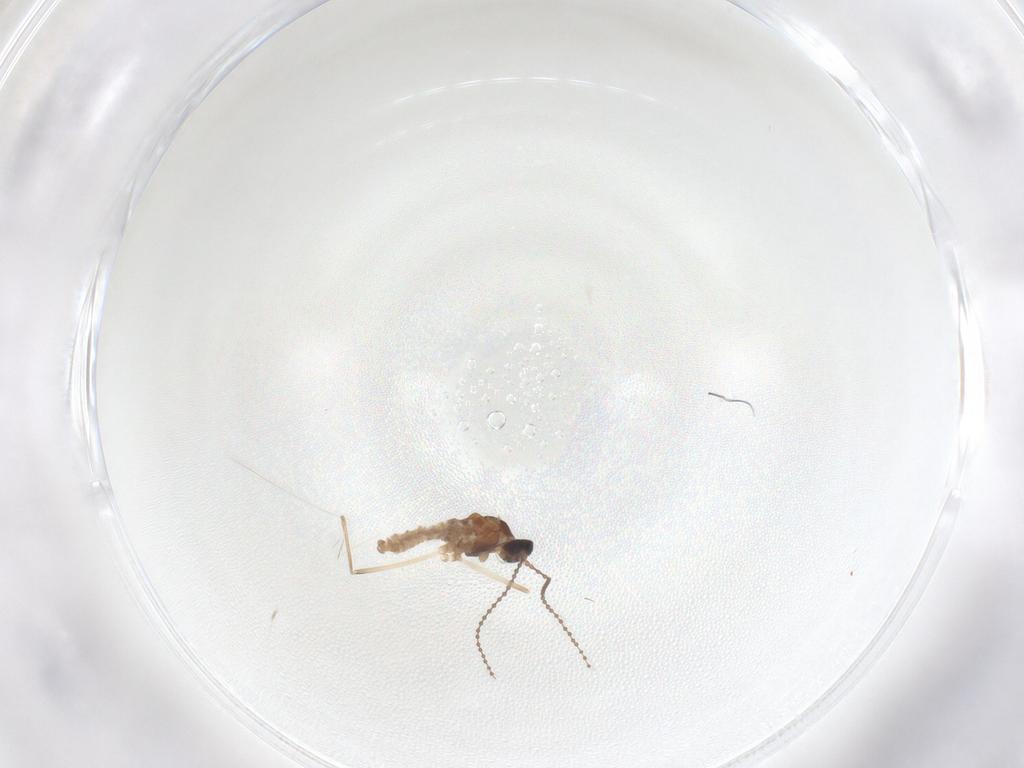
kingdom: Animalia
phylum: Arthropoda
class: Insecta
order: Diptera
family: Cecidomyiidae
